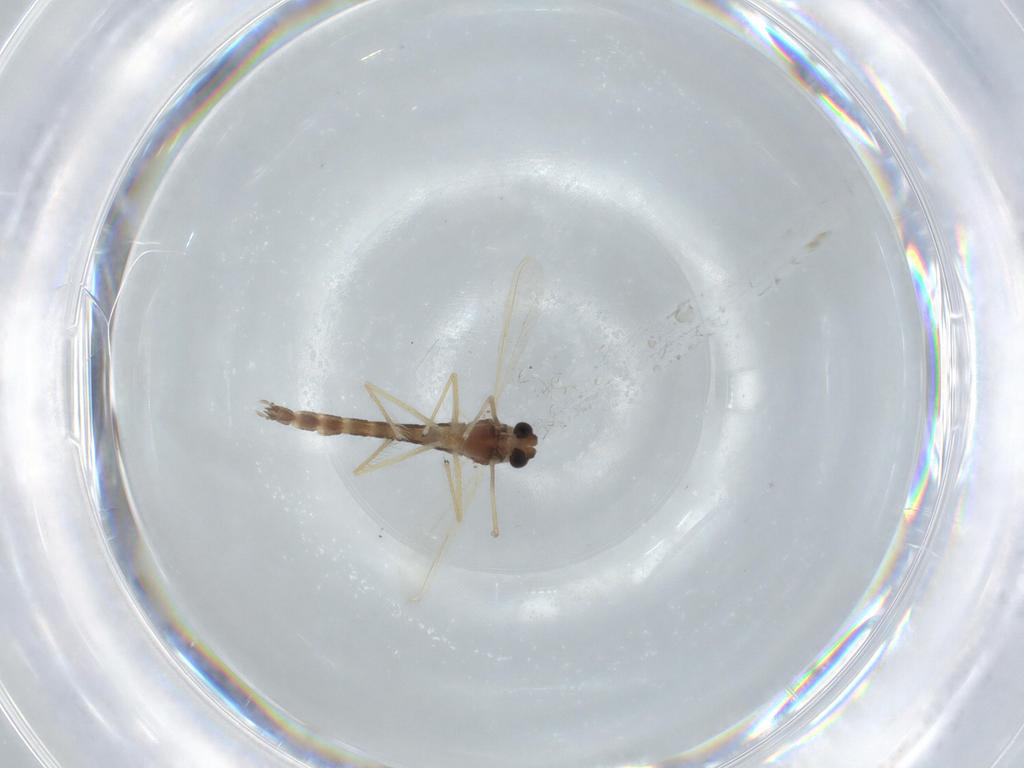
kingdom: Animalia
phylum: Arthropoda
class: Insecta
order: Diptera
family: Chironomidae
